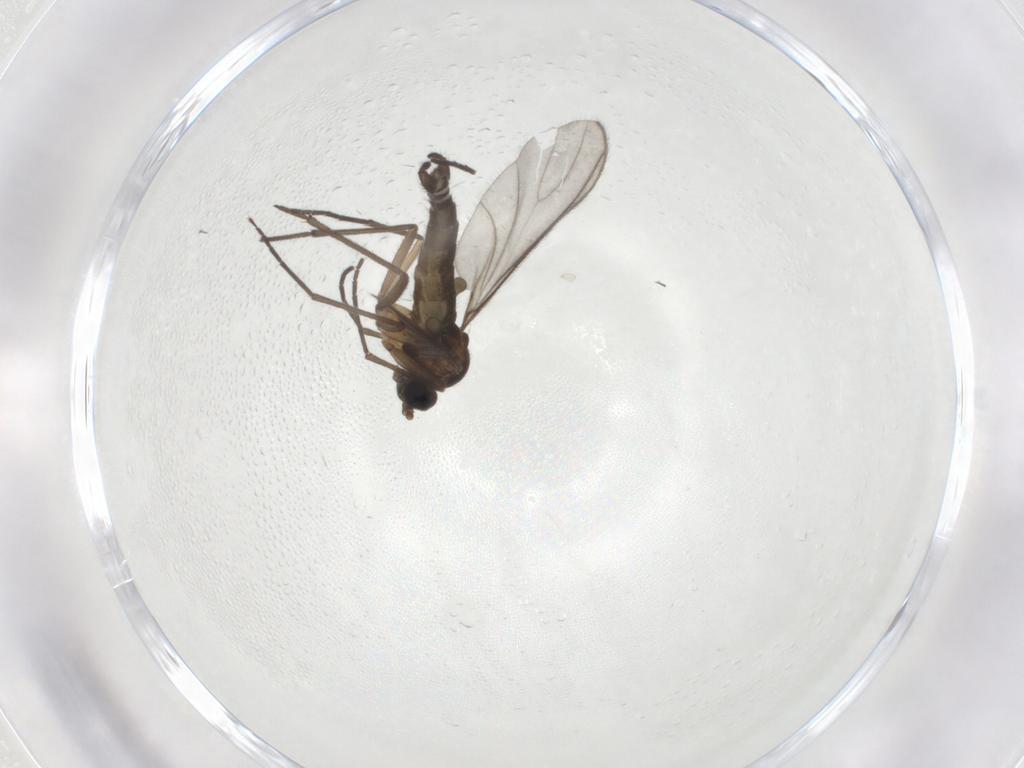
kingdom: Animalia
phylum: Arthropoda
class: Insecta
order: Diptera
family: Sciaridae
